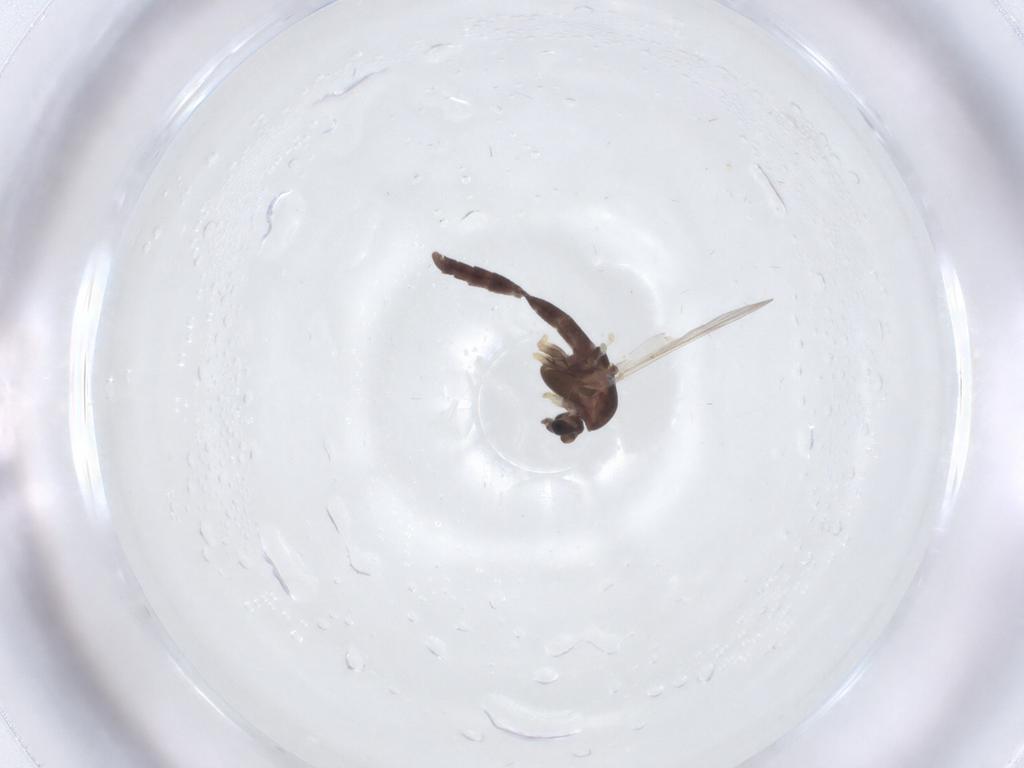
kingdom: Animalia
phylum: Arthropoda
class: Insecta
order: Diptera
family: Chironomidae
